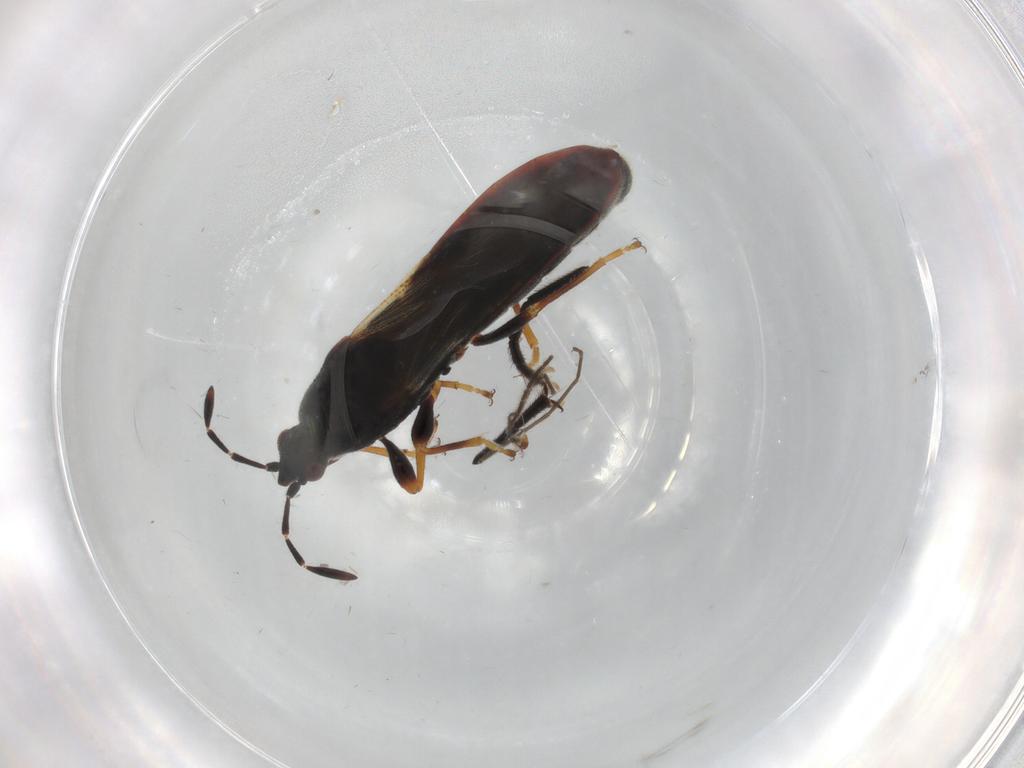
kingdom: Animalia
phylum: Arthropoda
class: Insecta
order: Hemiptera
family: Blissidae
